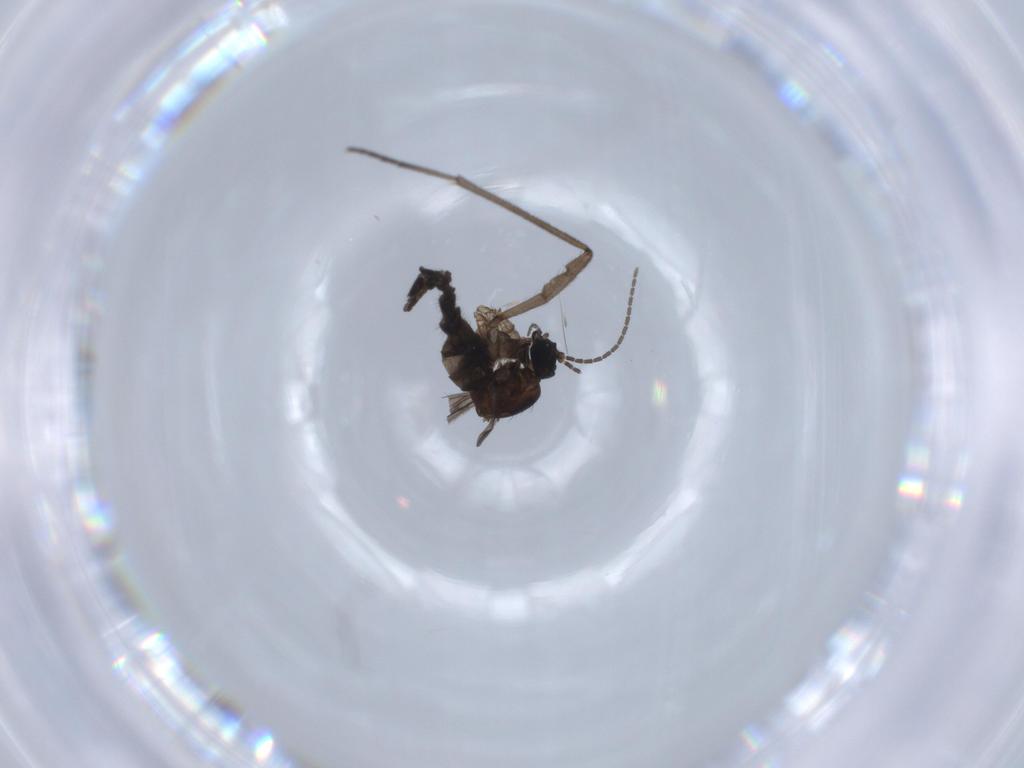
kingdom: Animalia
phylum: Arthropoda
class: Insecta
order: Diptera
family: Sciaridae
